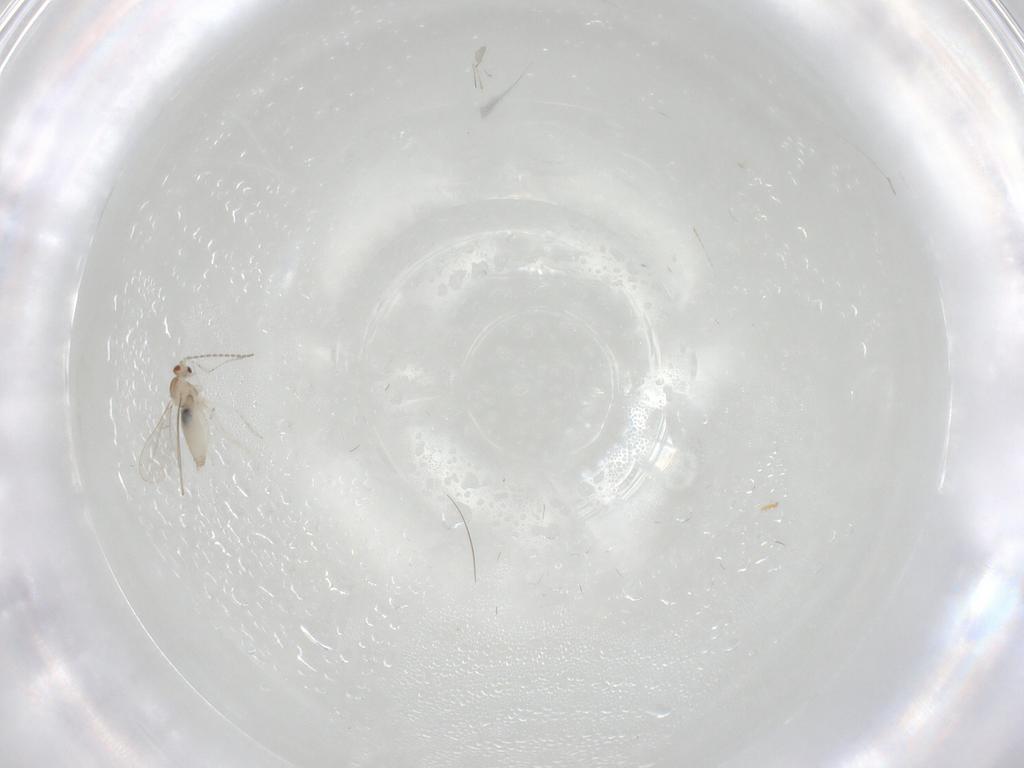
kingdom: Animalia
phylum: Arthropoda
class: Insecta
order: Diptera
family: Cecidomyiidae
